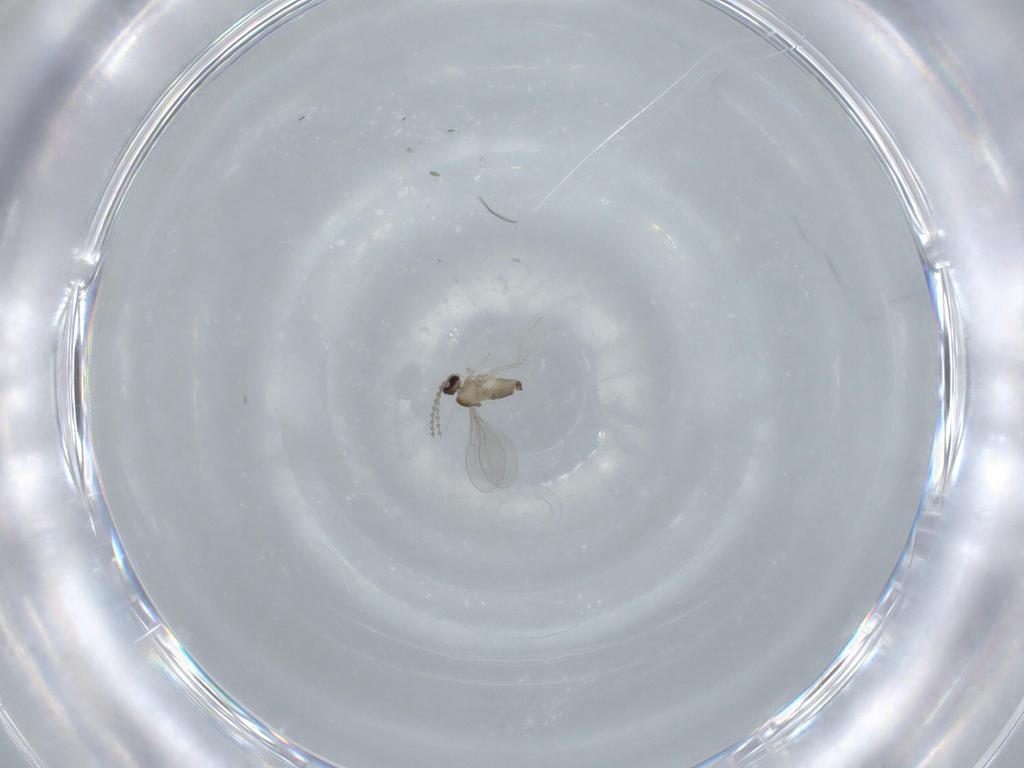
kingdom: Animalia
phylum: Arthropoda
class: Insecta
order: Diptera
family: Cecidomyiidae
